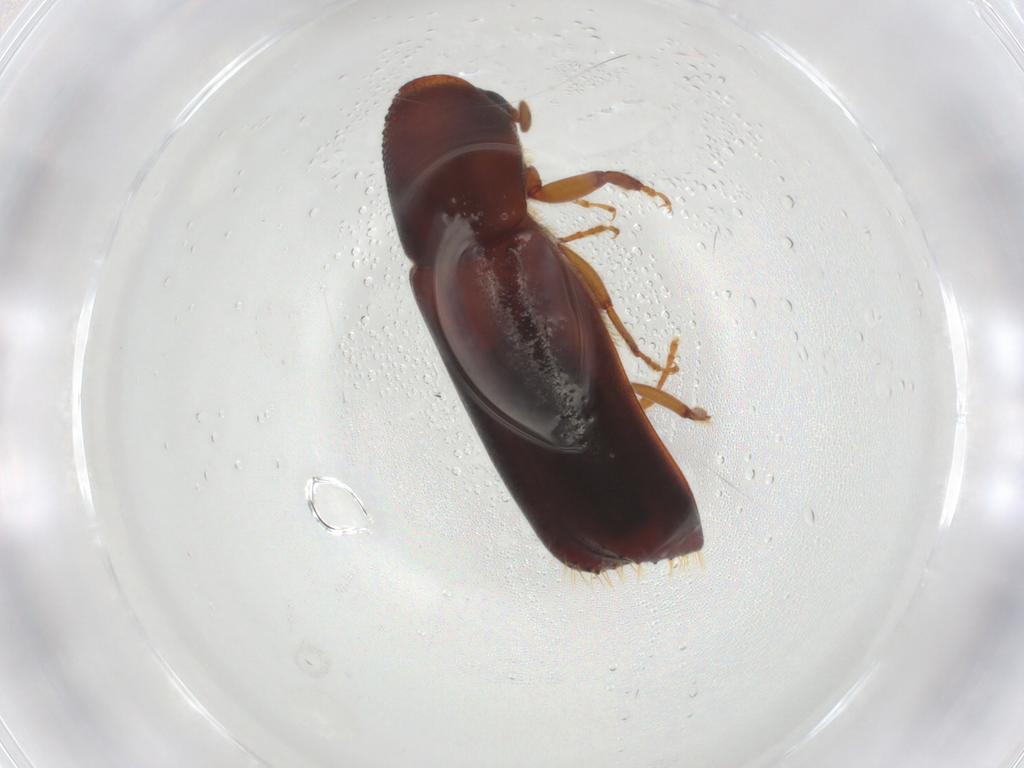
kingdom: Animalia
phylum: Arthropoda
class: Insecta
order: Coleoptera
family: Curculionidae
